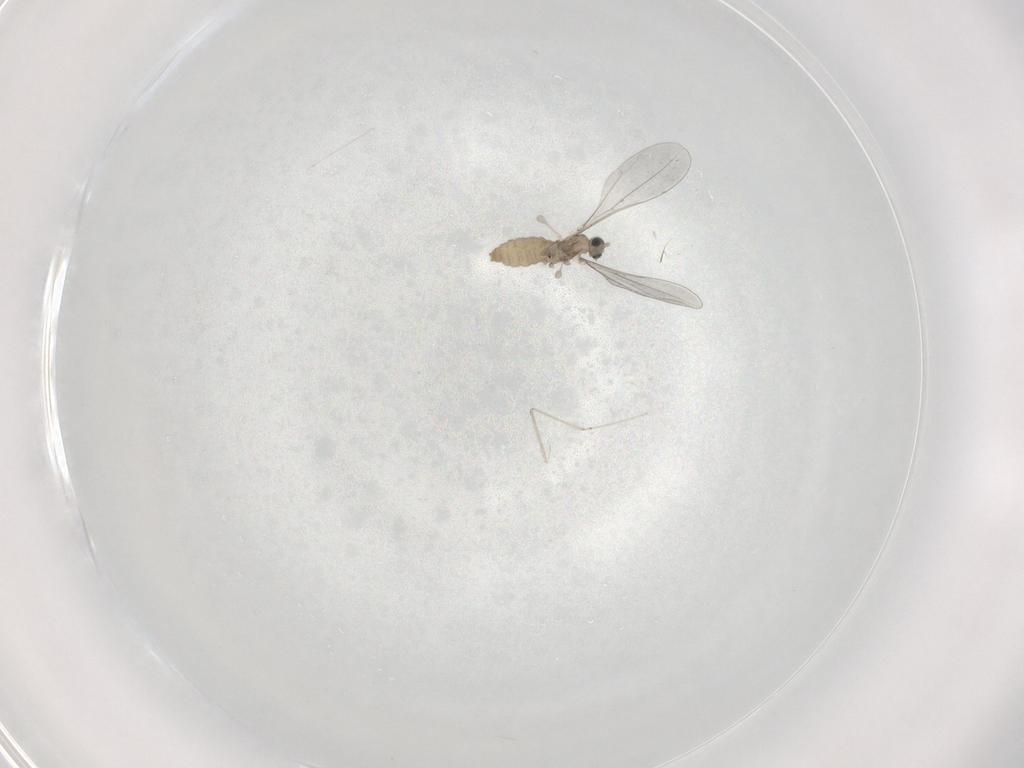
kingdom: Animalia
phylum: Arthropoda
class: Insecta
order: Diptera
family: Cecidomyiidae
